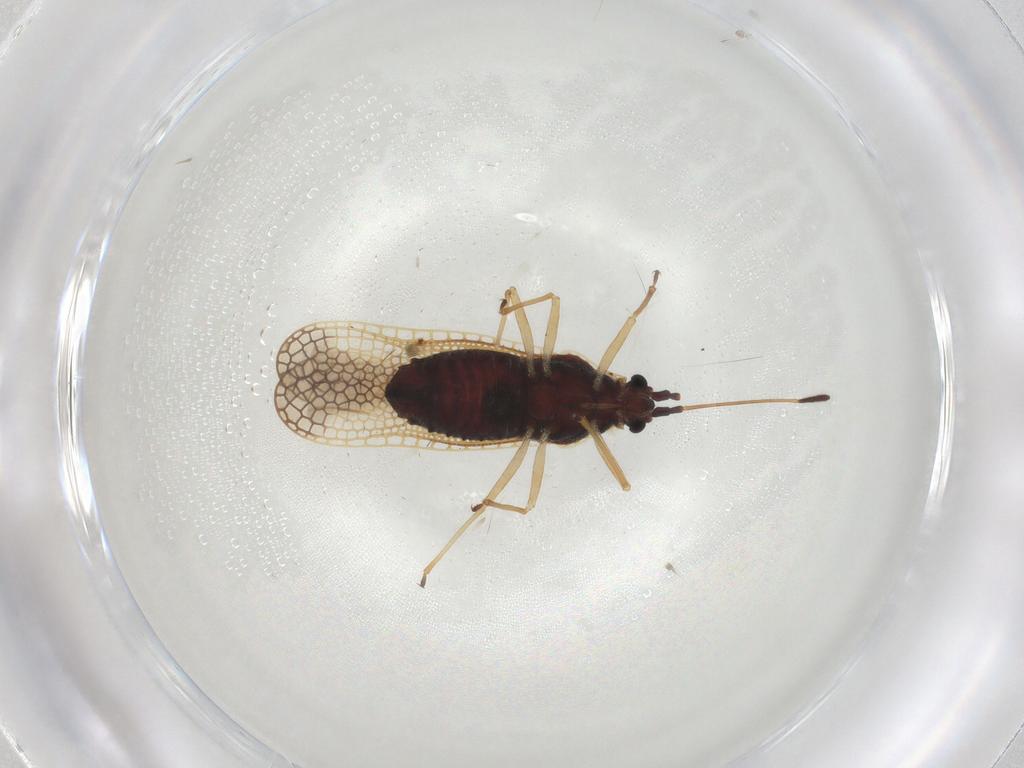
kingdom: Animalia
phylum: Arthropoda
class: Insecta
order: Hemiptera
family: Tingidae
